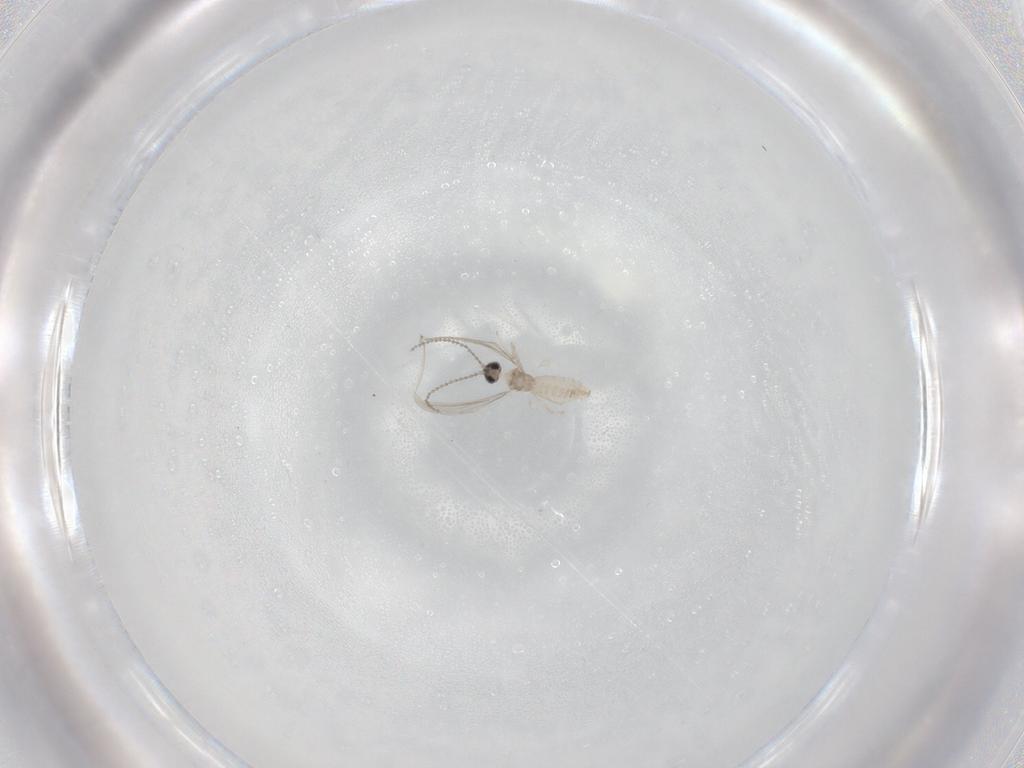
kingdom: Animalia
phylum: Arthropoda
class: Insecta
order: Diptera
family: Cecidomyiidae
